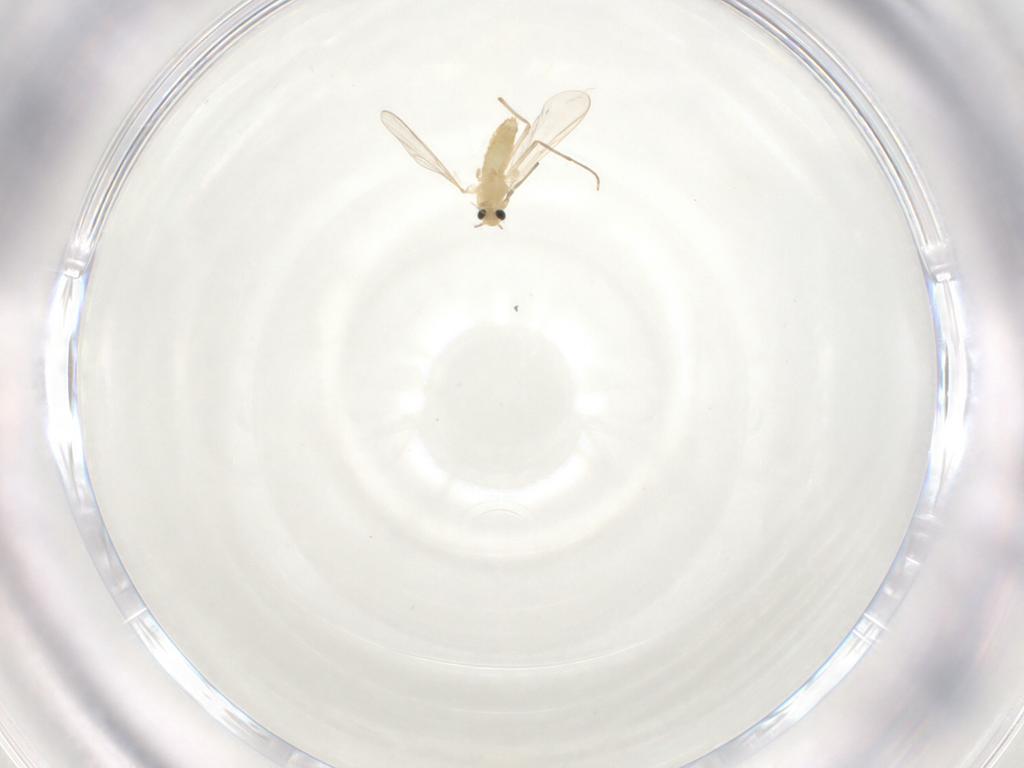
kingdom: Animalia
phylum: Arthropoda
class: Insecta
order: Diptera
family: Chironomidae
